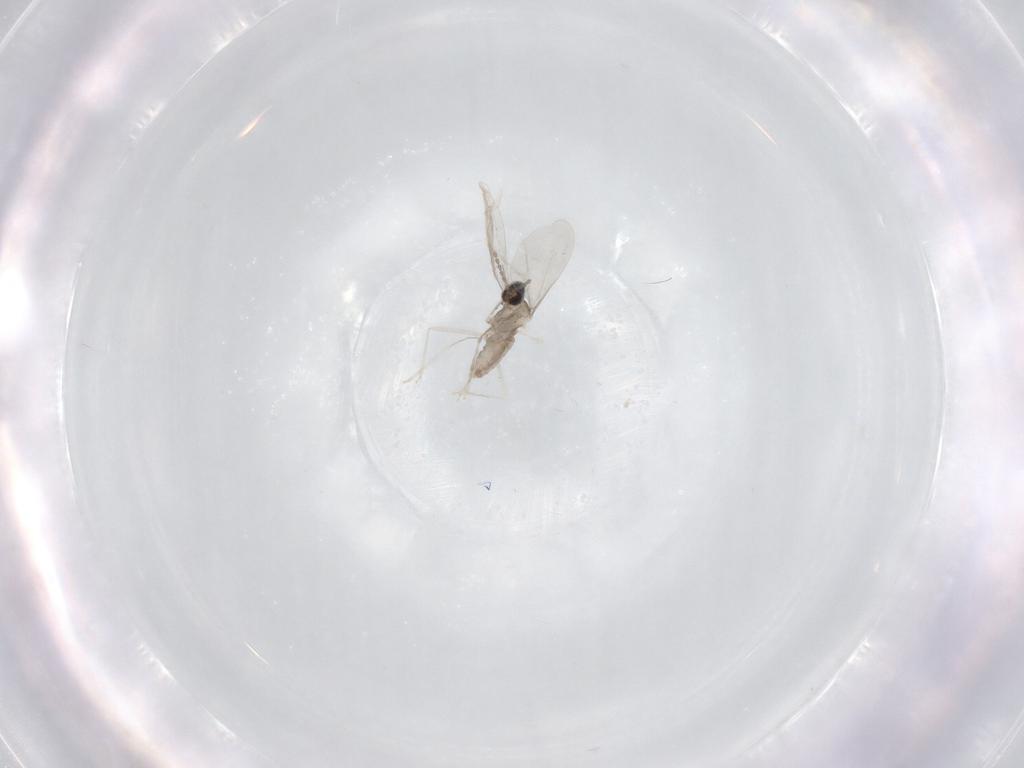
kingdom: Animalia
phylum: Arthropoda
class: Insecta
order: Diptera
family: Cecidomyiidae
